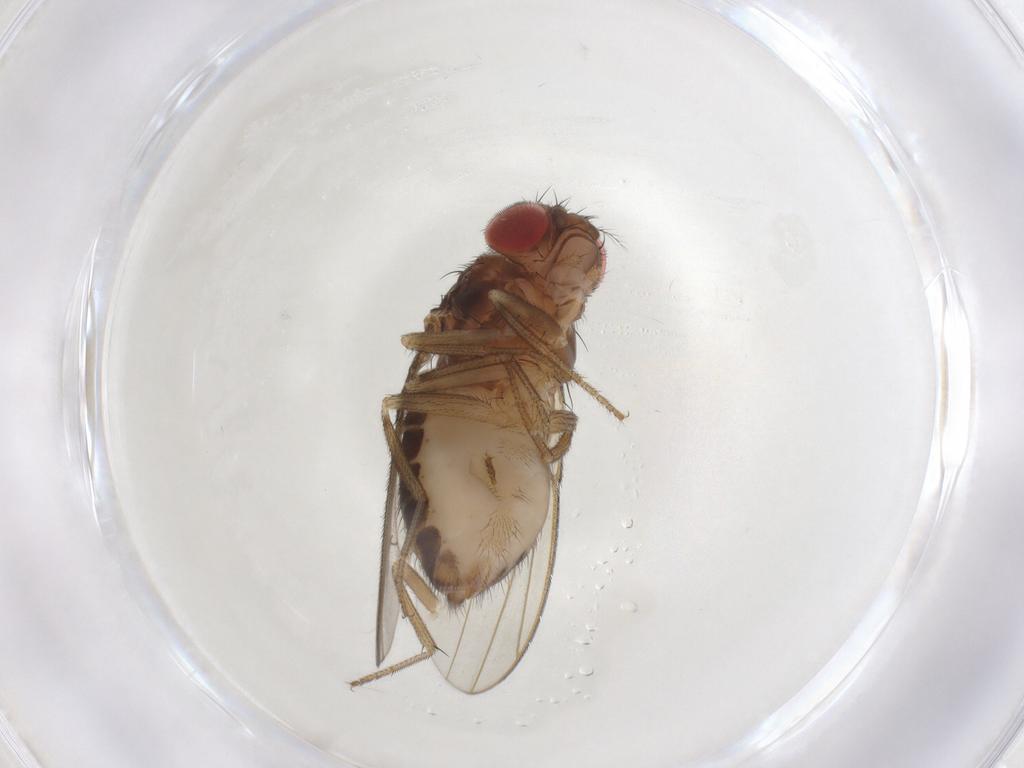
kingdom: Animalia
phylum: Arthropoda
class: Insecta
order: Diptera
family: Drosophilidae
